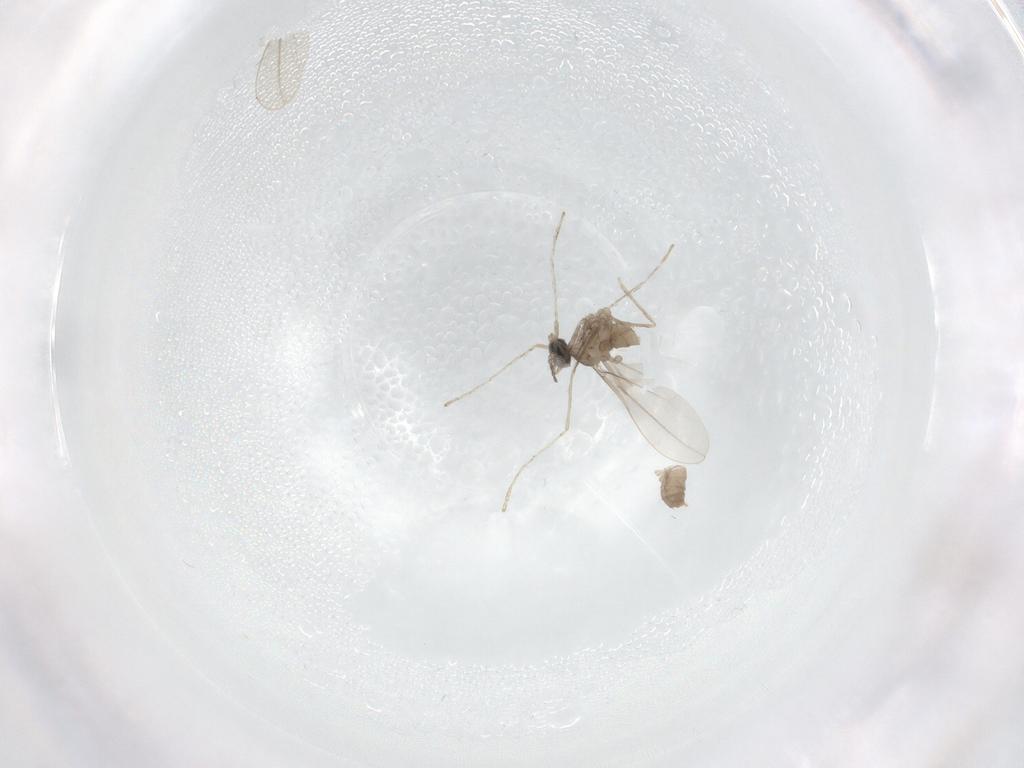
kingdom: Animalia
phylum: Arthropoda
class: Insecta
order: Diptera
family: Cecidomyiidae
